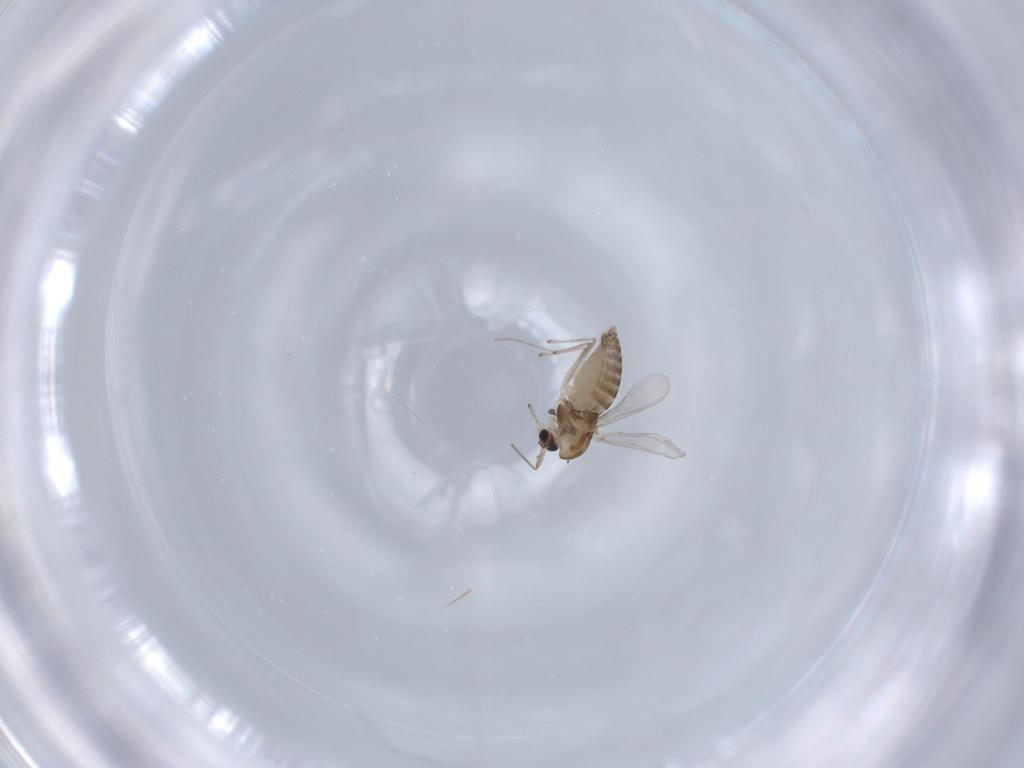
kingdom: Animalia
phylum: Arthropoda
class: Insecta
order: Diptera
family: Chironomidae
